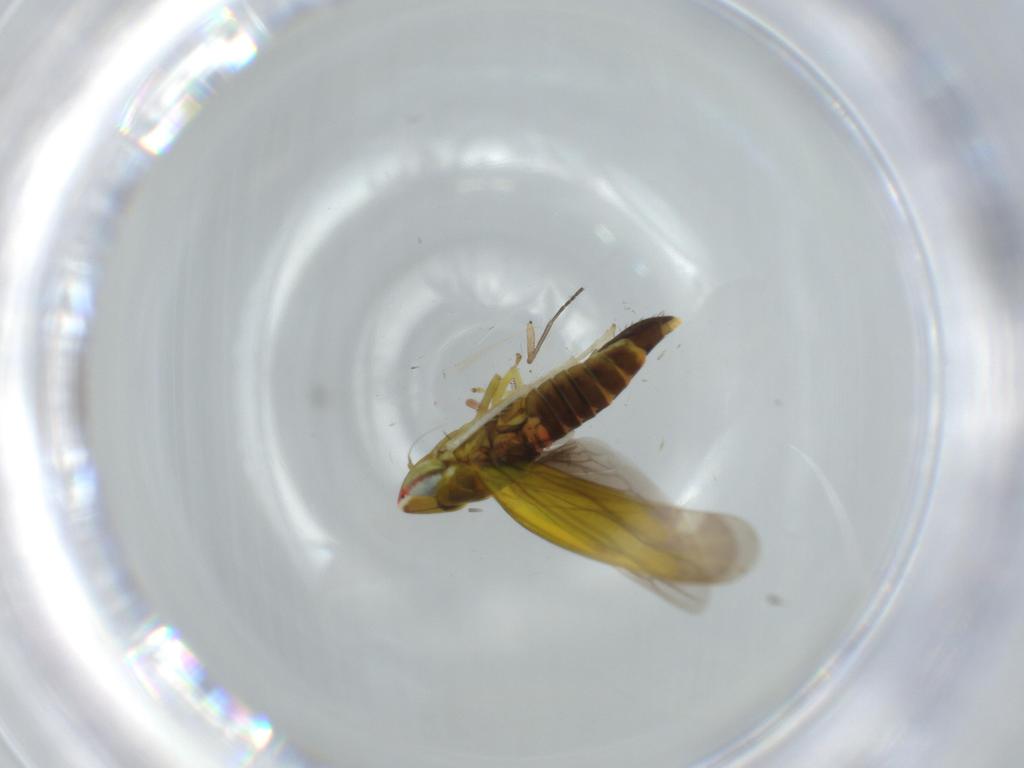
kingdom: Animalia
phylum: Arthropoda
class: Insecta
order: Hemiptera
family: Cicadellidae
